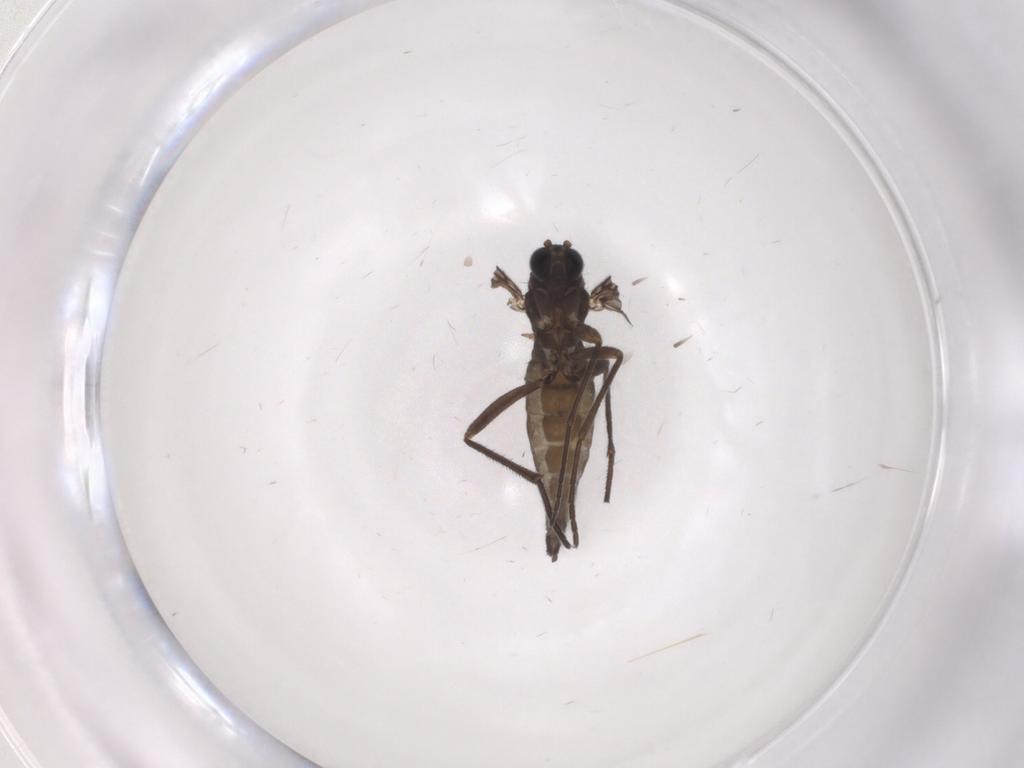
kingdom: Animalia
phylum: Arthropoda
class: Insecta
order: Diptera
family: Sciaridae
